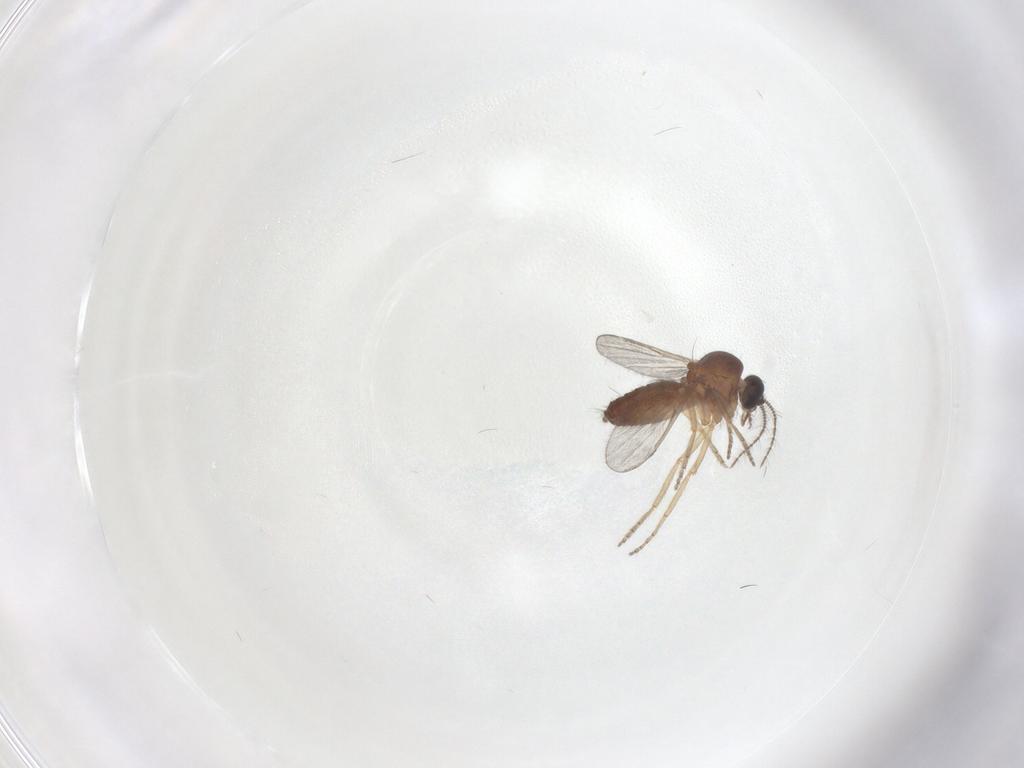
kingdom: Animalia
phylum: Arthropoda
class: Insecta
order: Diptera
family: Ceratopogonidae
